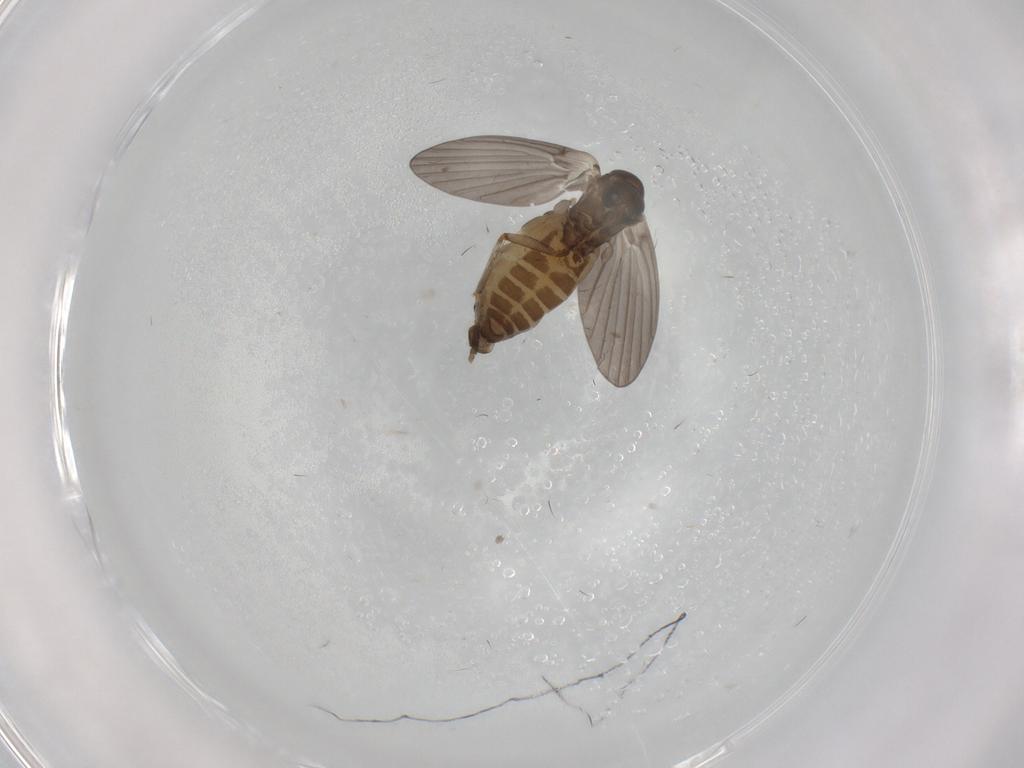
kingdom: Animalia
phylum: Arthropoda
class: Insecta
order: Diptera
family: Psychodidae
